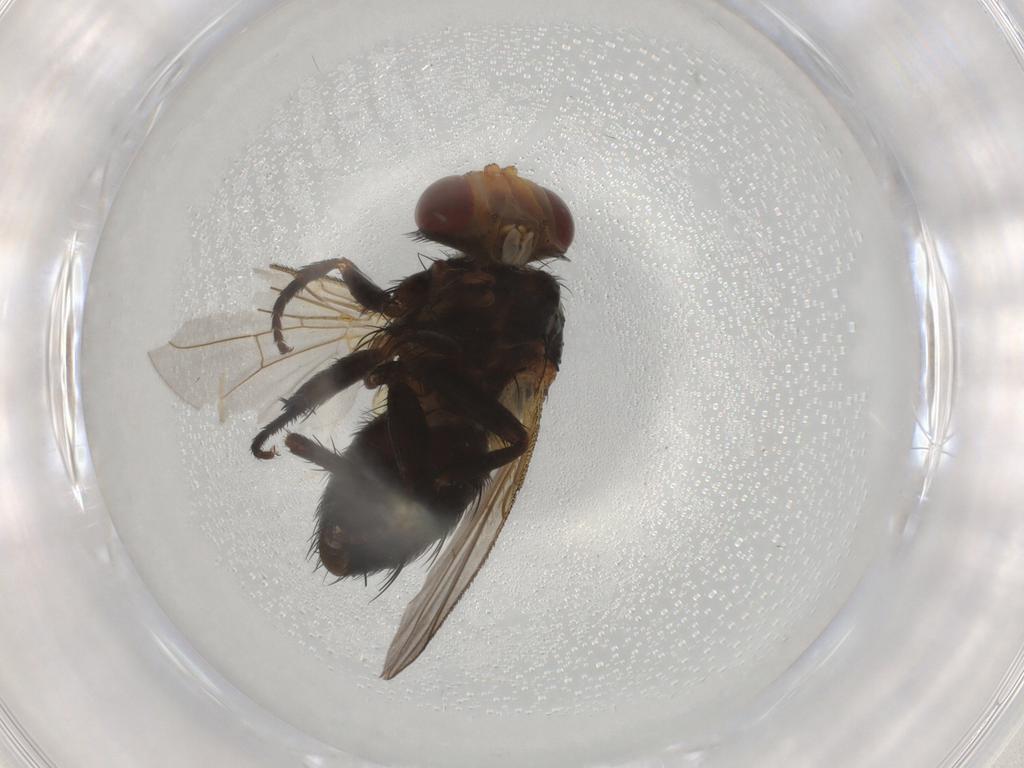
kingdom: Animalia
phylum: Arthropoda
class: Insecta
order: Diptera
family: Tachinidae
